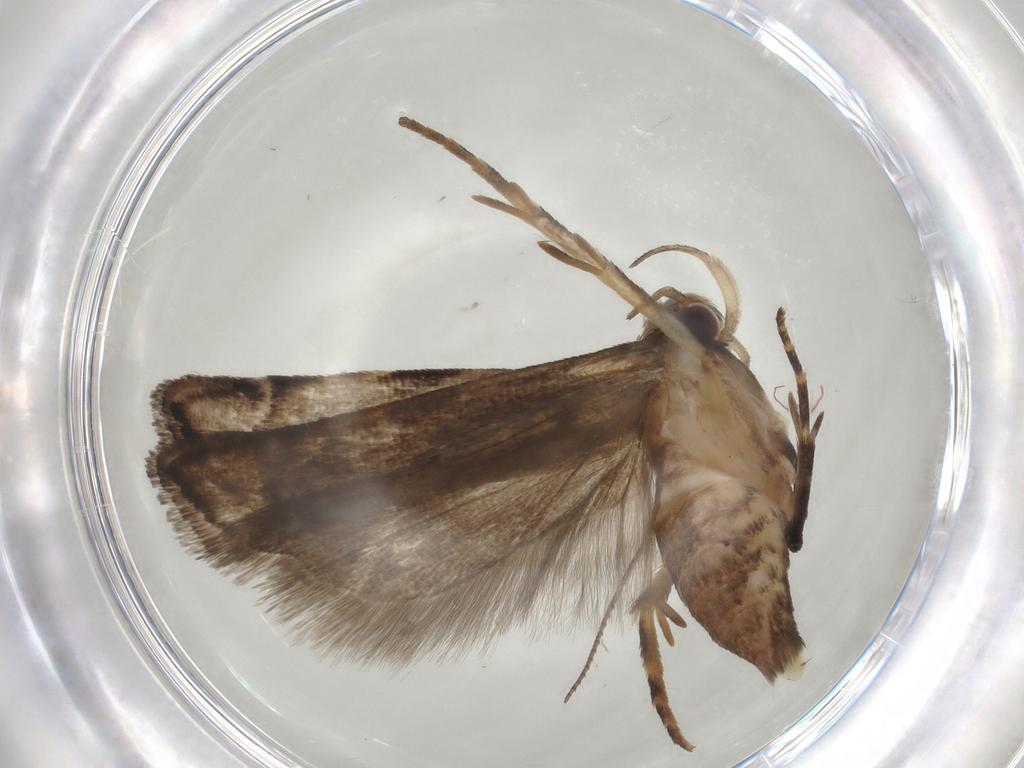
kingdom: Animalia
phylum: Arthropoda
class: Insecta
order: Lepidoptera
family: Gelechiidae
